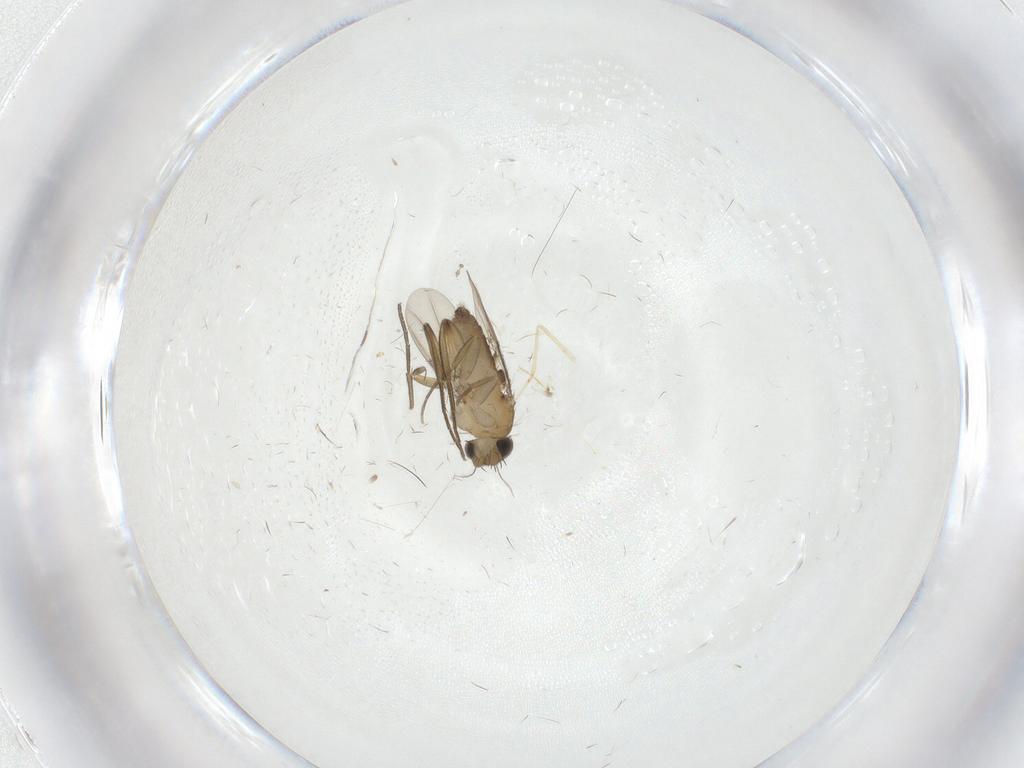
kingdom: Animalia
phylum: Arthropoda
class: Insecta
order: Diptera
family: Phoridae
